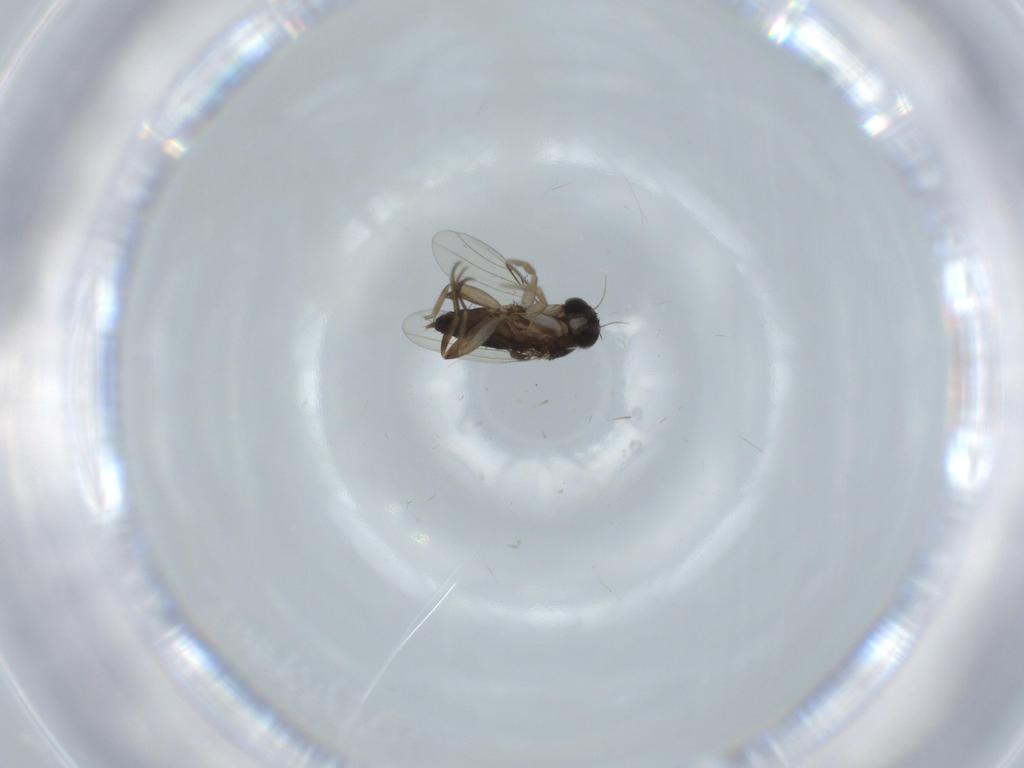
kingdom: Animalia
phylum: Arthropoda
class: Insecta
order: Diptera
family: Phoridae
